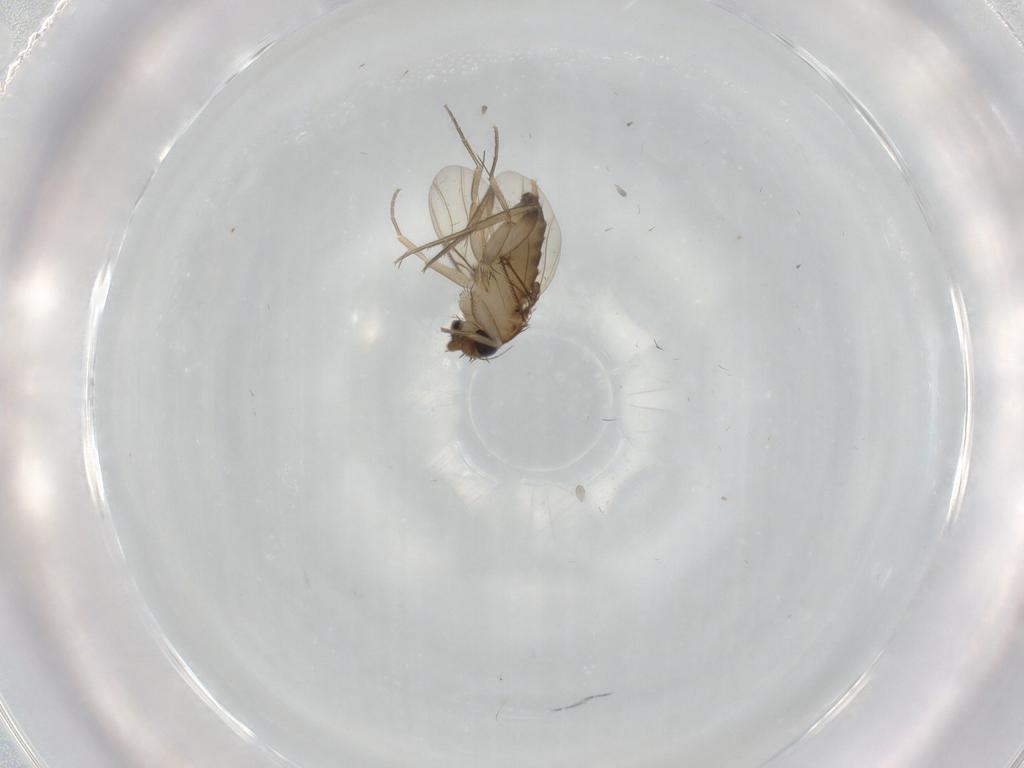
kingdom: Animalia
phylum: Arthropoda
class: Insecta
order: Diptera
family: Phoridae
